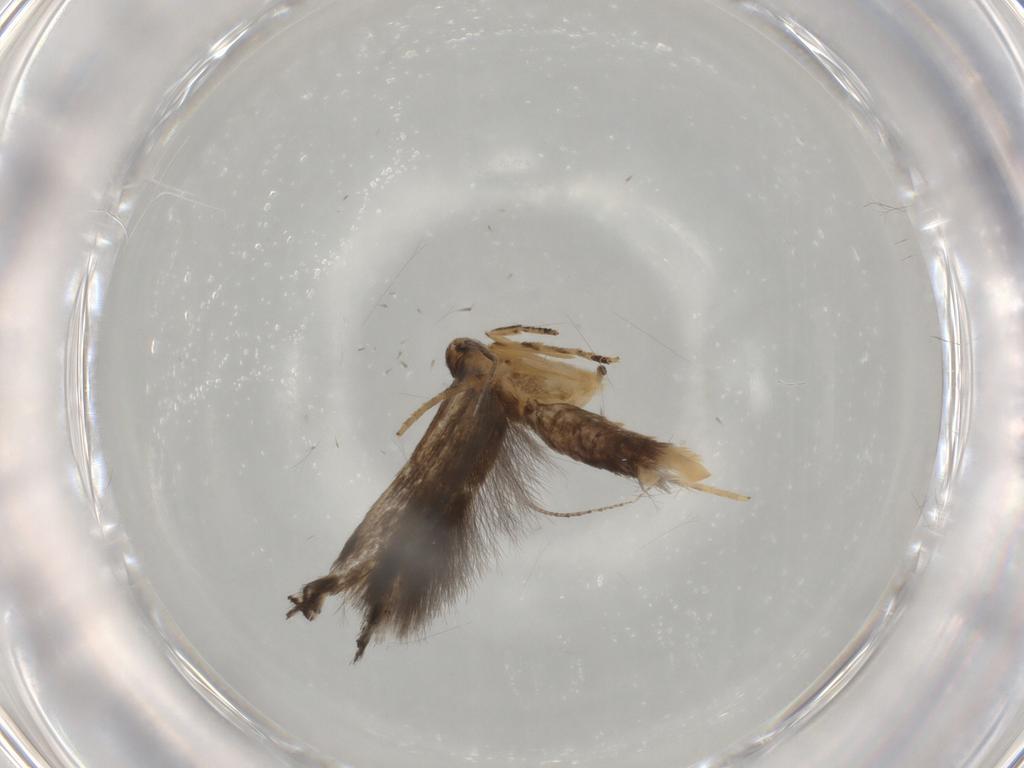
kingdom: Animalia
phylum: Arthropoda
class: Insecta
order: Lepidoptera
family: Elachistidae
